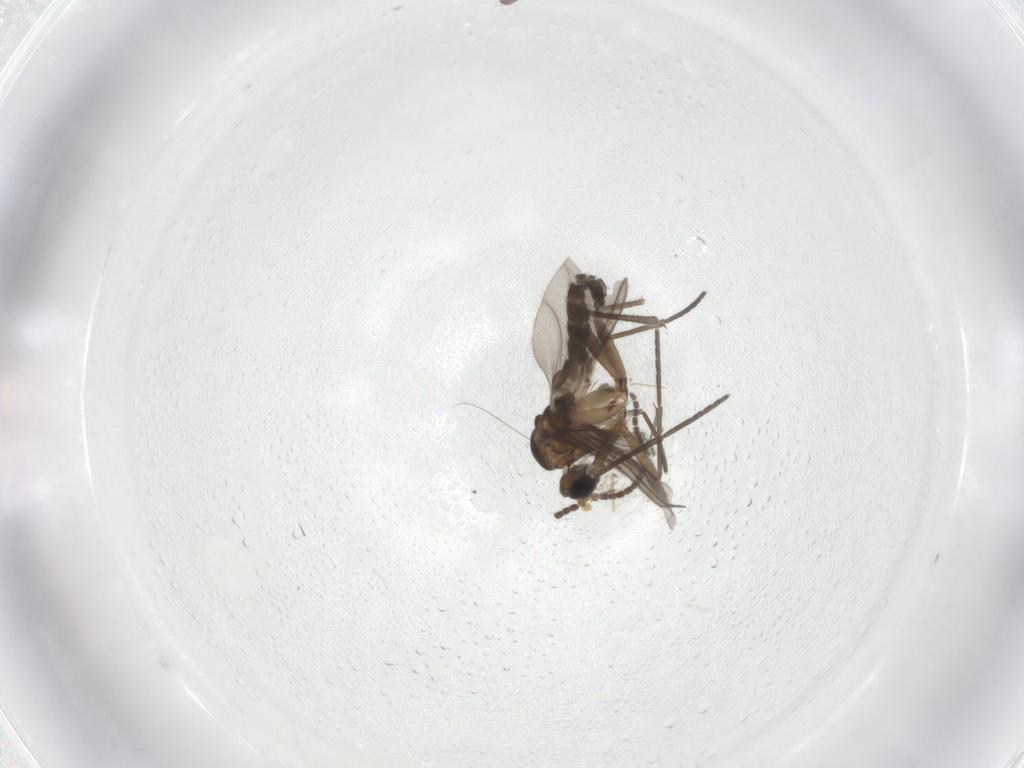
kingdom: Animalia
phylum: Arthropoda
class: Insecta
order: Diptera
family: Sciaridae
